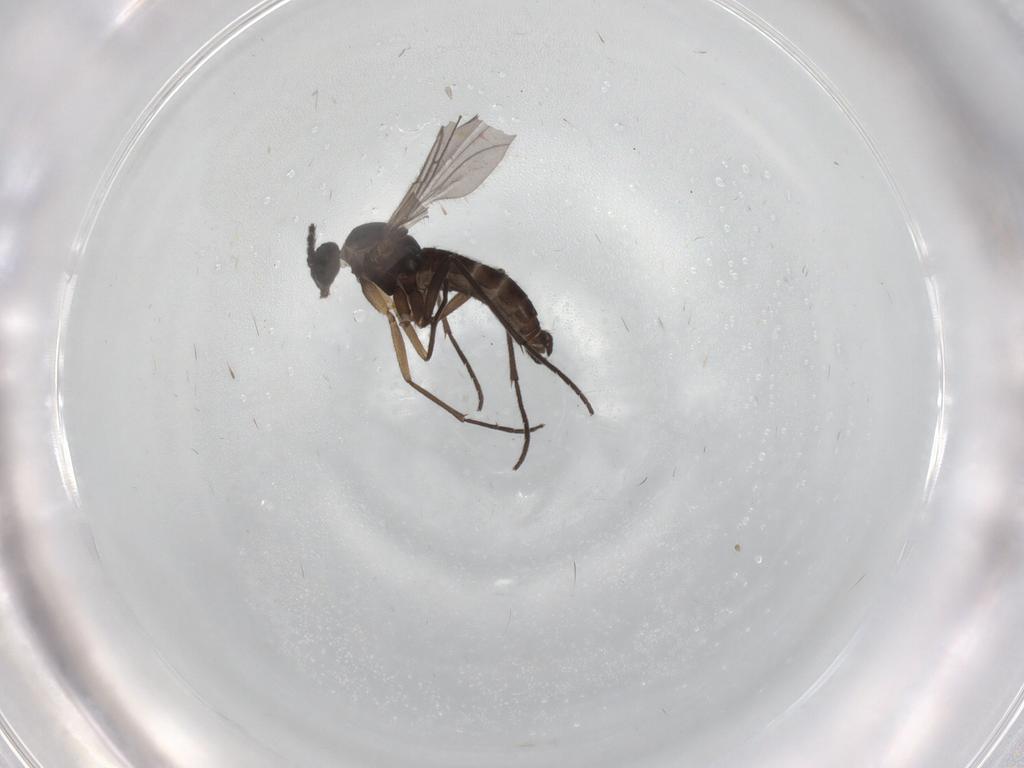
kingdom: Animalia
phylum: Arthropoda
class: Insecta
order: Diptera
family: Sciaridae
